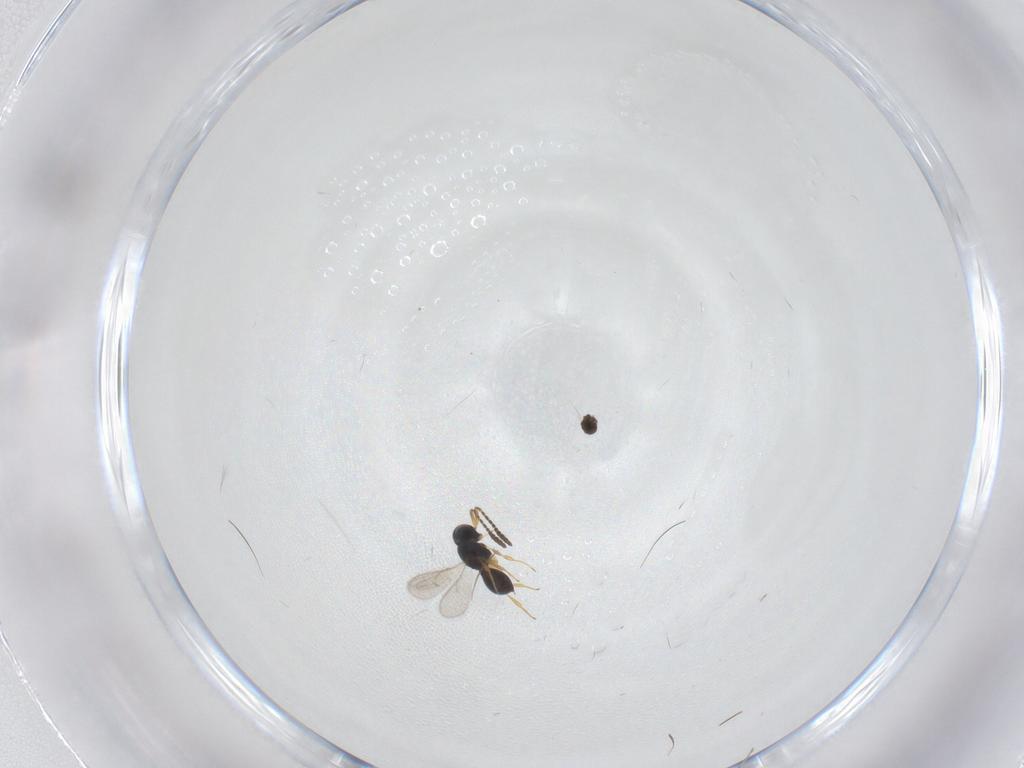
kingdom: Animalia
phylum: Arthropoda
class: Insecta
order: Hymenoptera
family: Scelionidae
